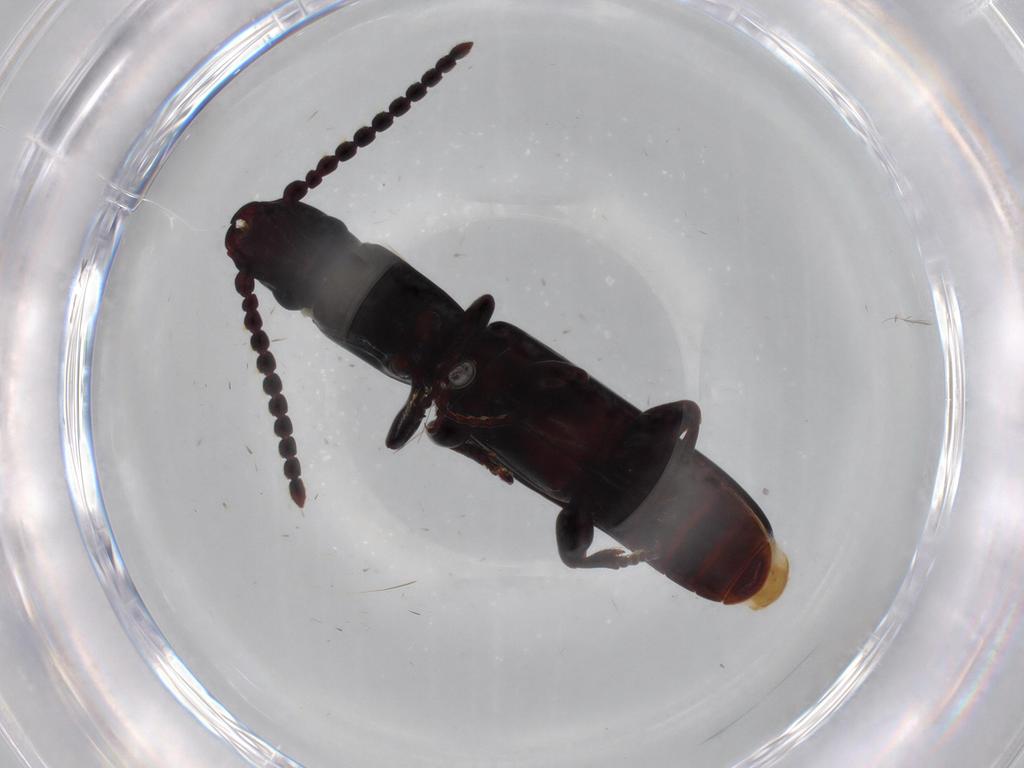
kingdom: Animalia
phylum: Arthropoda
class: Insecta
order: Coleoptera
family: Passandridae
